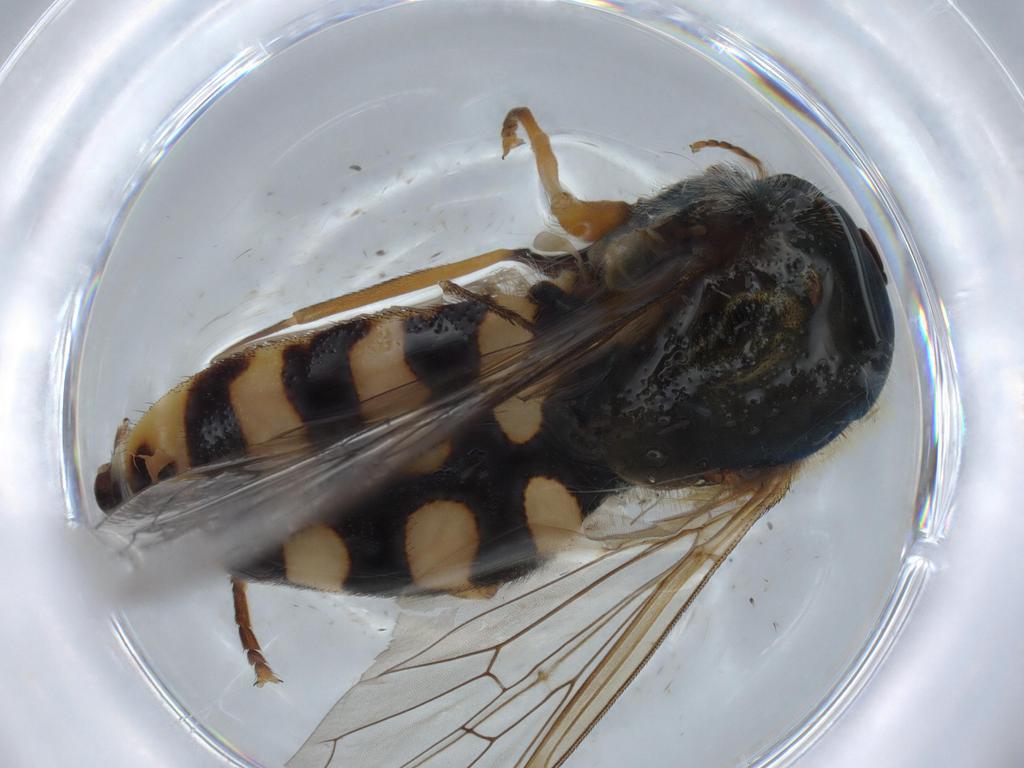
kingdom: Animalia
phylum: Arthropoda
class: Insecta
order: Diptera
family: Syrphidae
